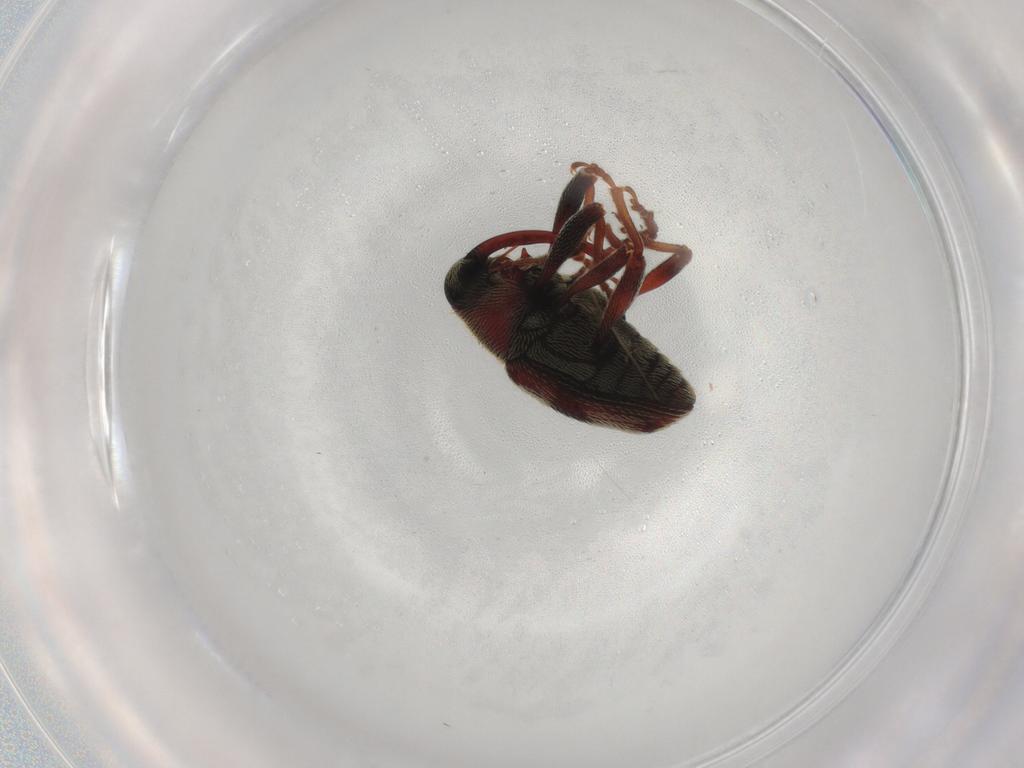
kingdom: Animalia
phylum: Arthropoda
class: Insecta
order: Coleoptera
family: Curculionidae
